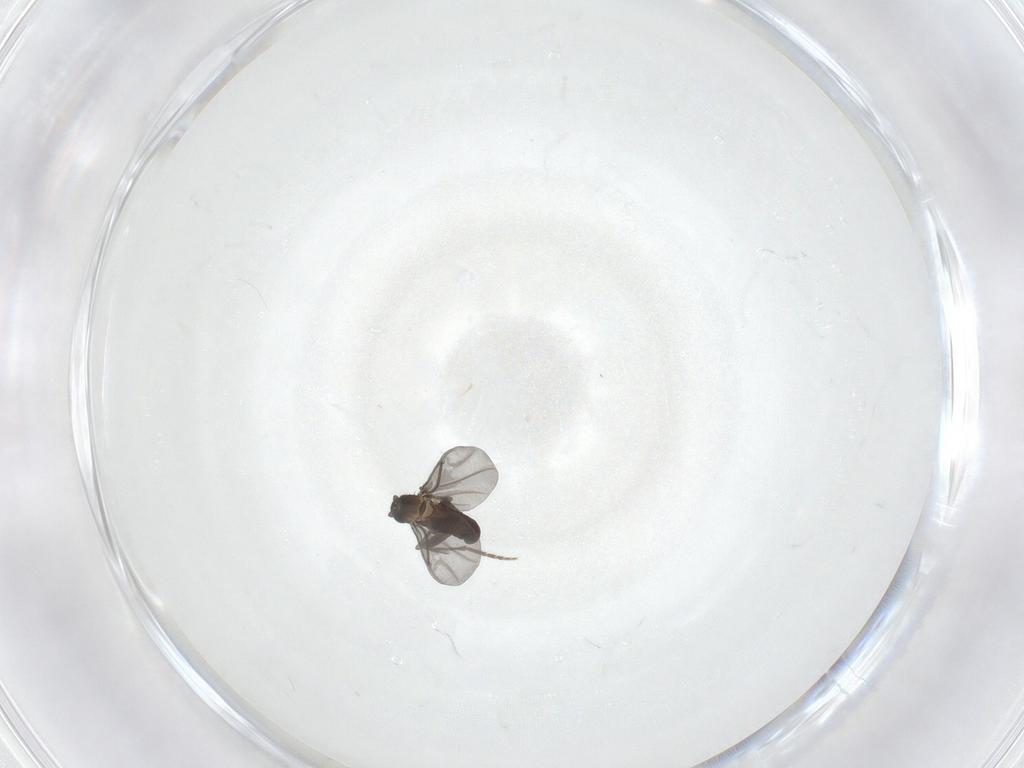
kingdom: Animalia
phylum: Arthropoda
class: Insecta
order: Diptera
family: Phoridae
